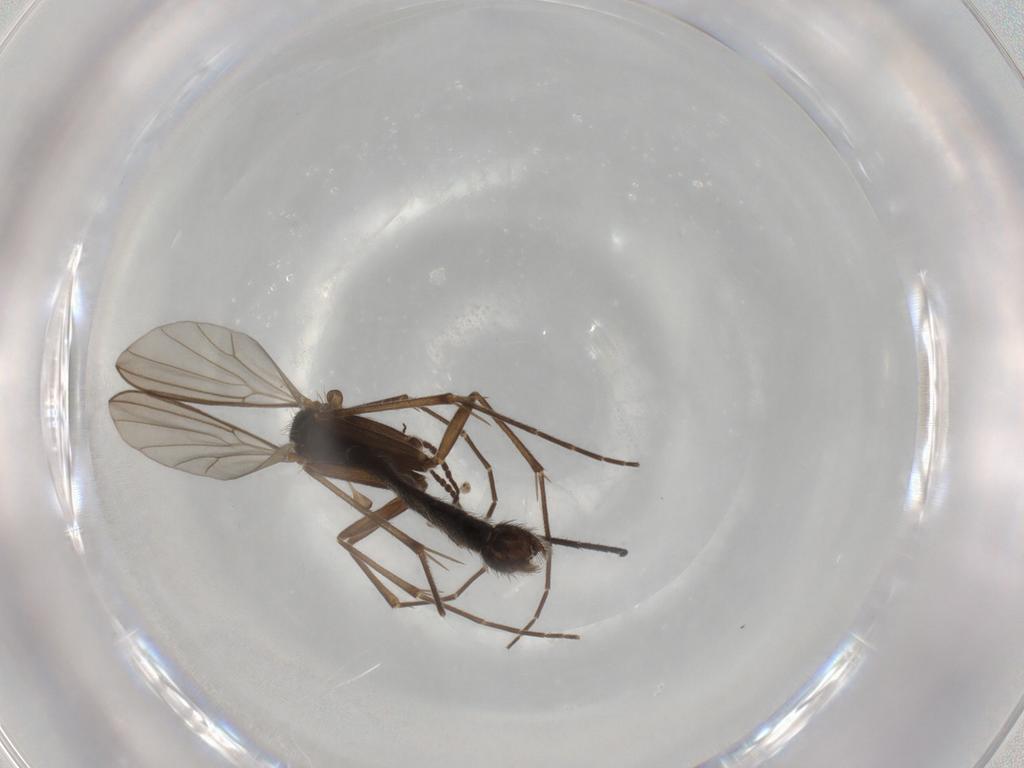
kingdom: Animalia
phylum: Arthropoda
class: Insecta
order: Diptera
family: Mycetophilidae
